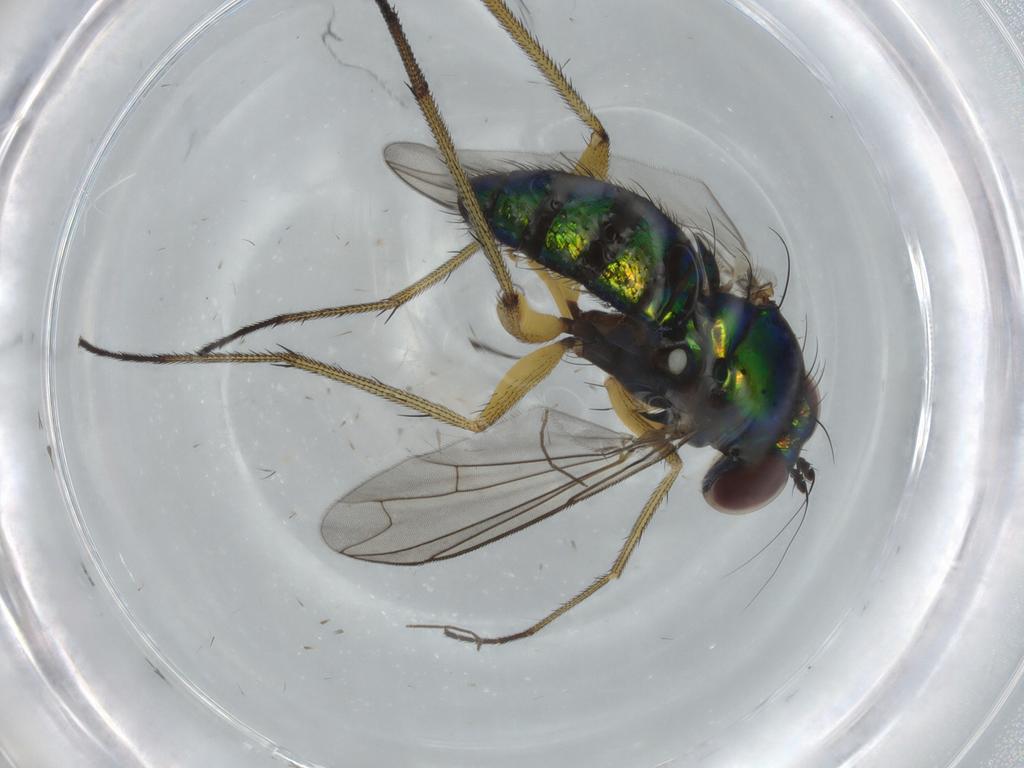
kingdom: Animalia
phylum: Arthropoda
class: Insecta
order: Diptera
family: Dolichopodidae
